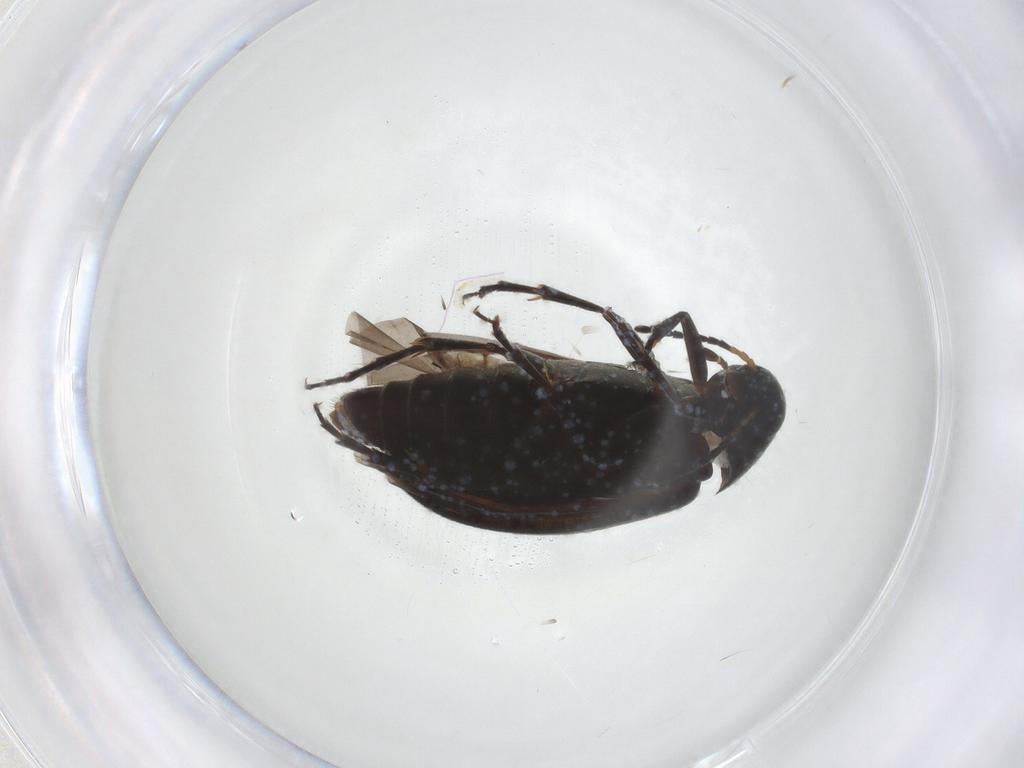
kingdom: Animalia
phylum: Arthropoda
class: Insecta
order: Coleoptera
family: Scraptiidae
